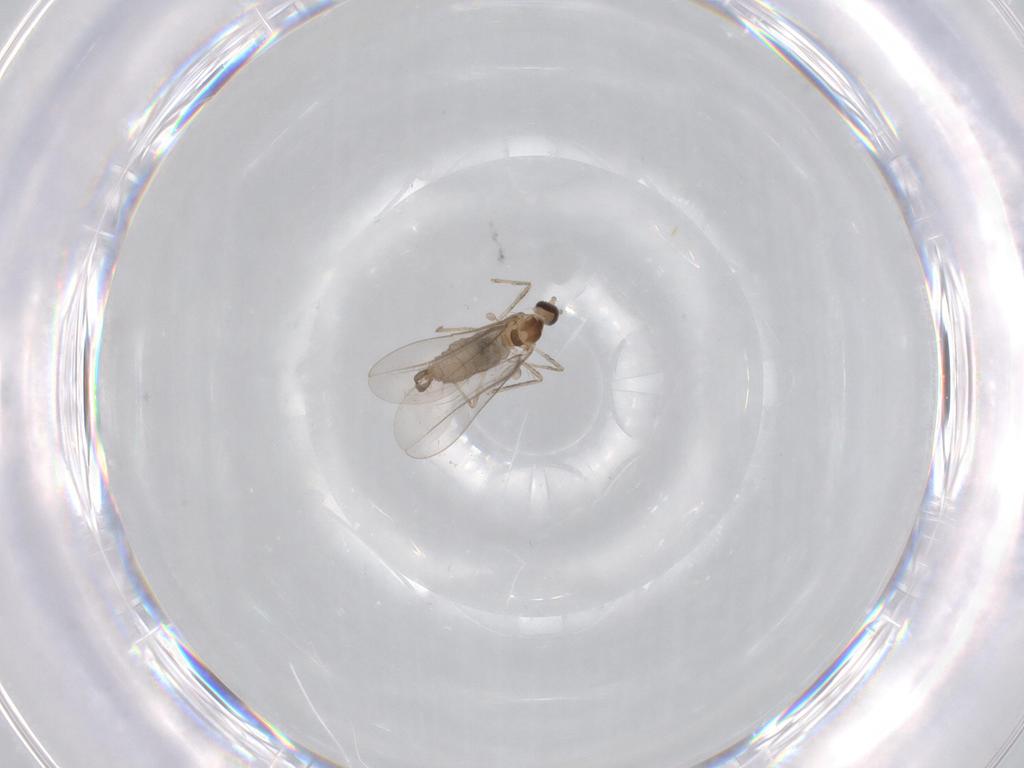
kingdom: Animalia
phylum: Arthropoda
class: Insecta
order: Diptera
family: Cecidomyiidae
